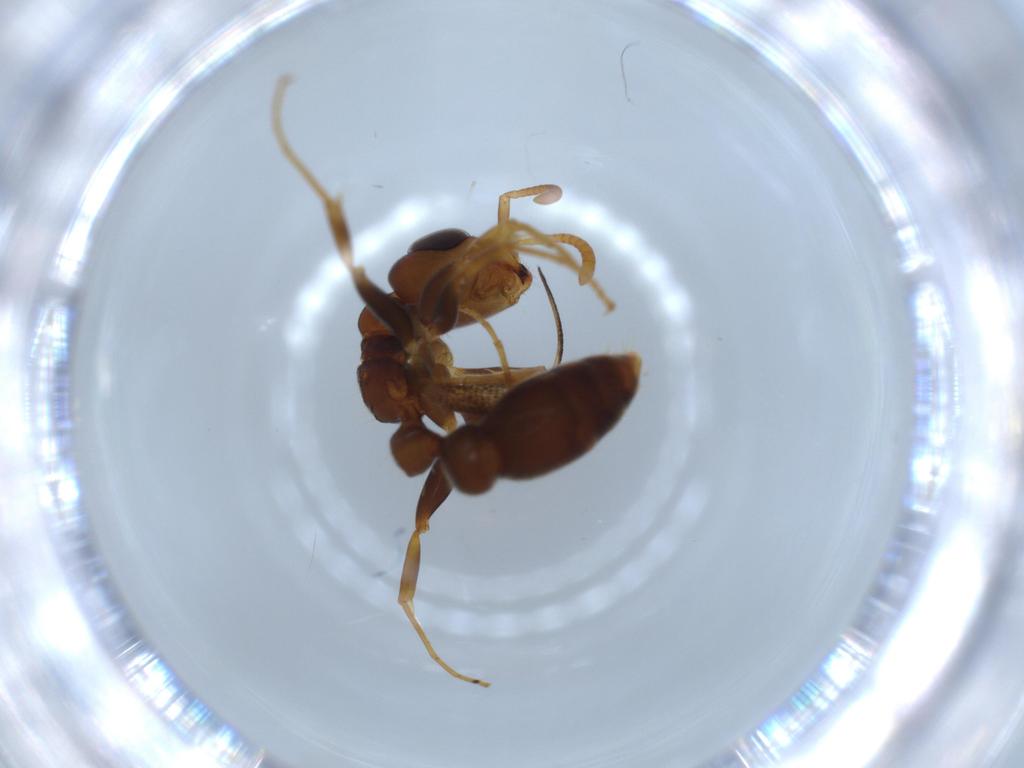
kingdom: Animalia
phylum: Arthropoda
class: Insecta
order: Hymenoptera
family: Formicidae
